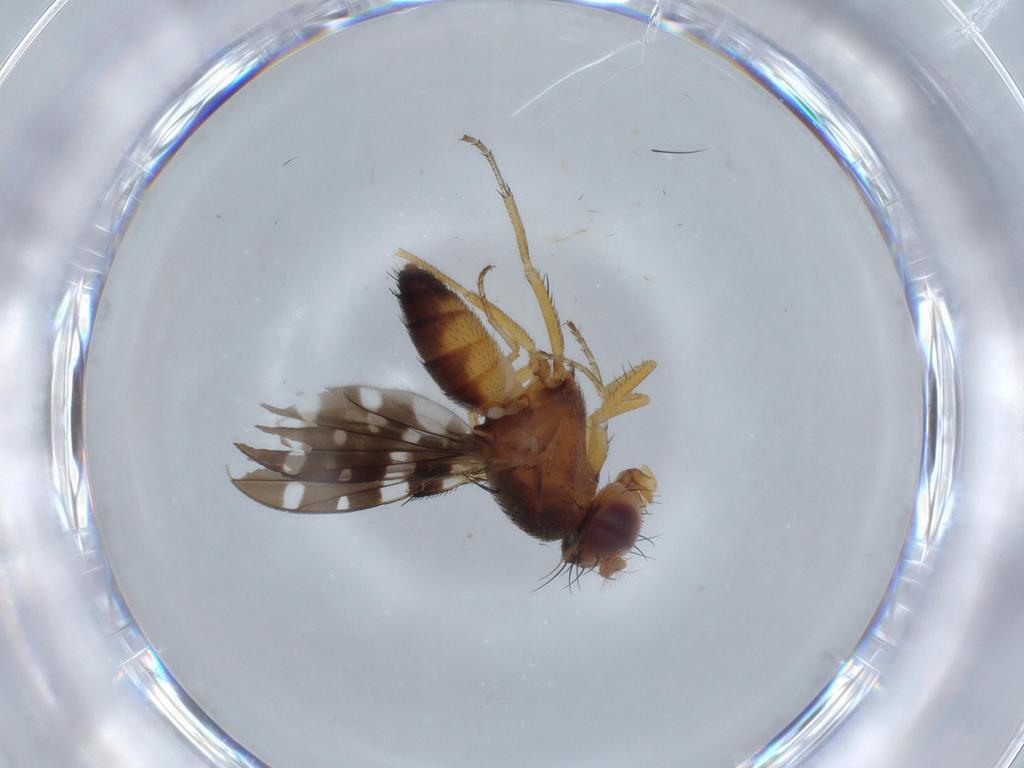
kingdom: Animalia
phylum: Arthropoda
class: Insecta
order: Diptera
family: Ephydridae
